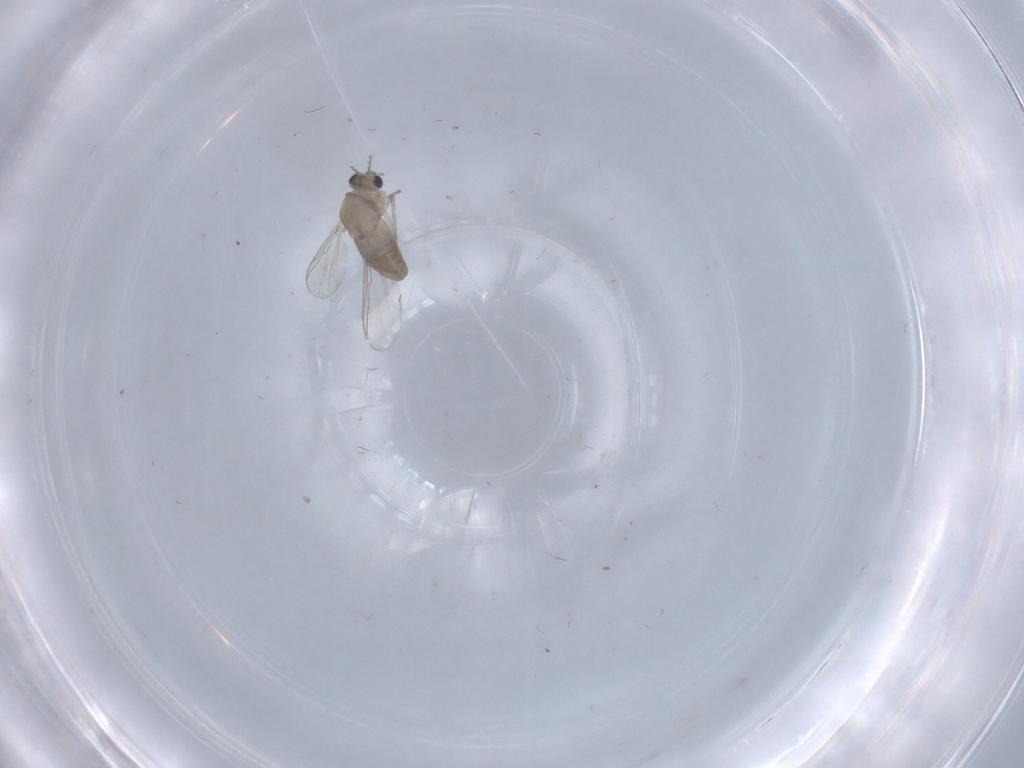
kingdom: Animalia
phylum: Arthropoda
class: Insecta
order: Diptera
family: Chironomidae
